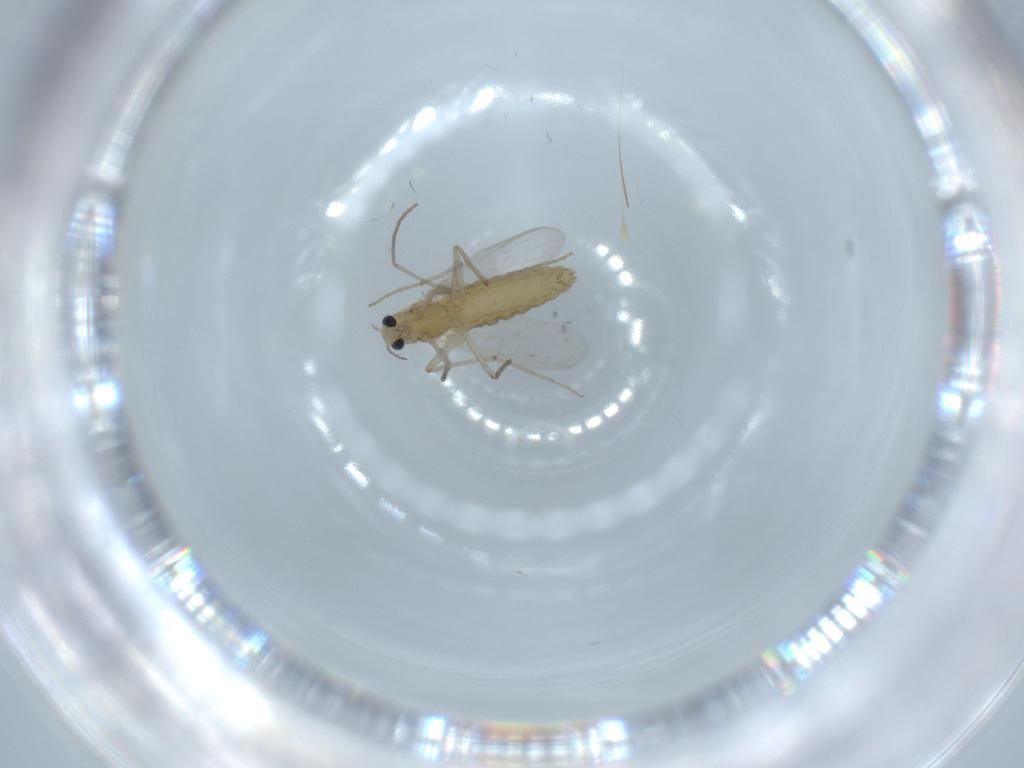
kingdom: Animalia
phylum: Arthropoda
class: Insecta
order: Diptera
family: Chironomidae
